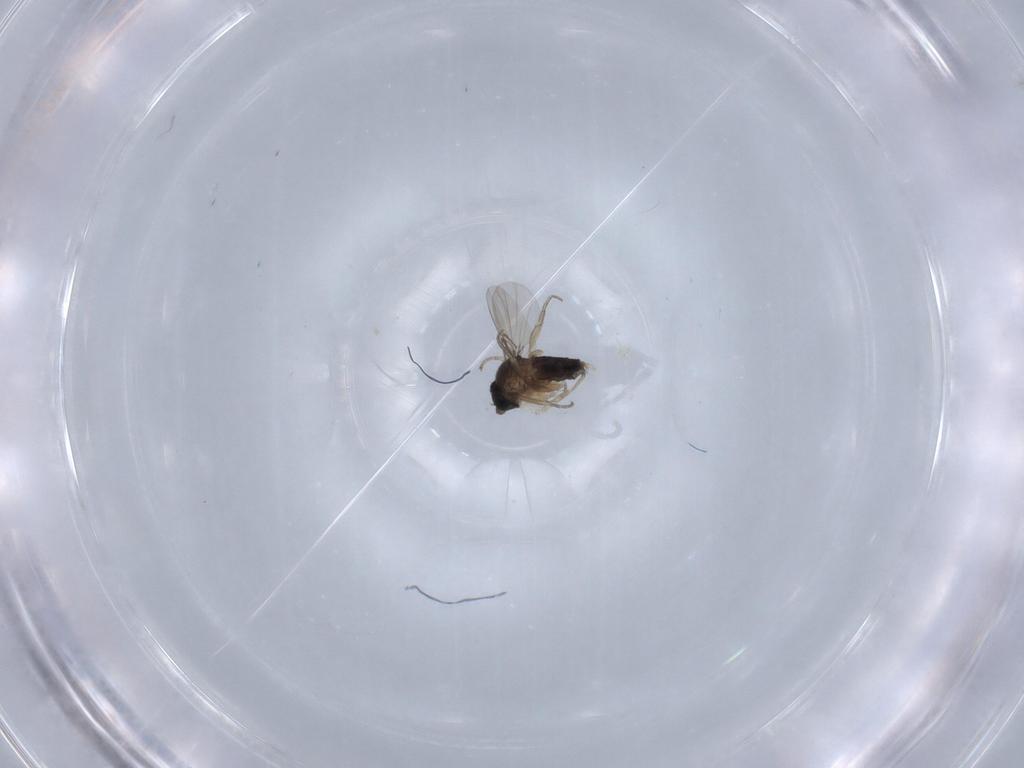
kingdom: Animalia
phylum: Arthropoda
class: Insecta
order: Diptera
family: Phoridae
